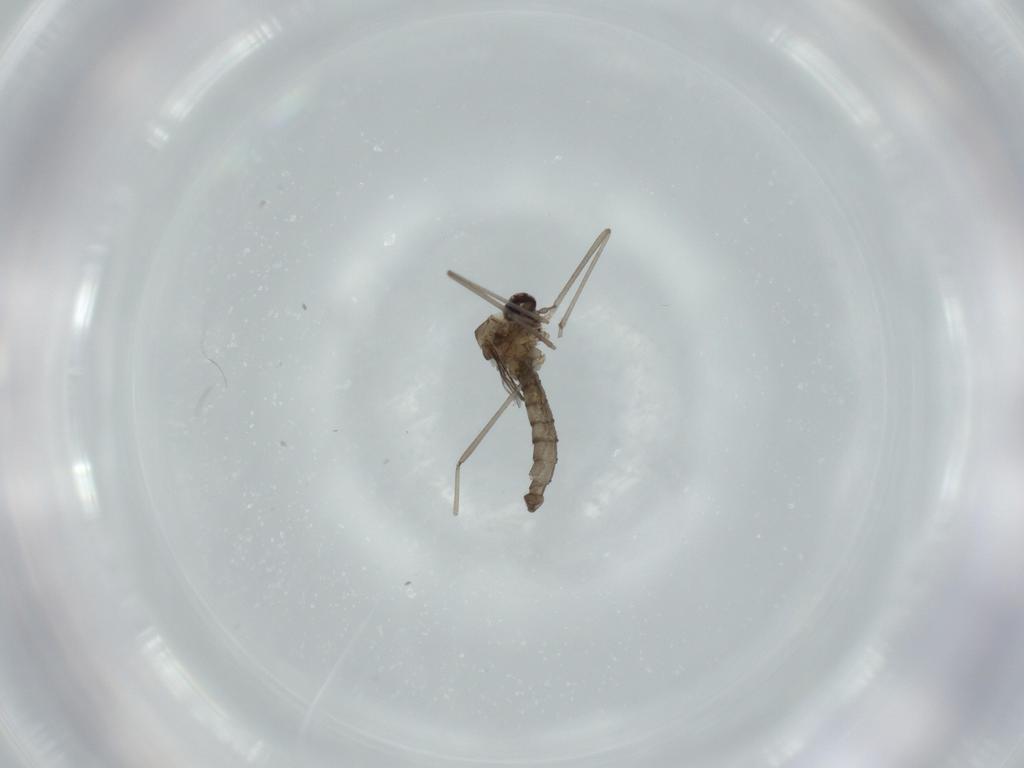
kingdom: Animalia
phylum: Arthropoda
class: Insecta
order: Diptera
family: Cecidomyiidae
